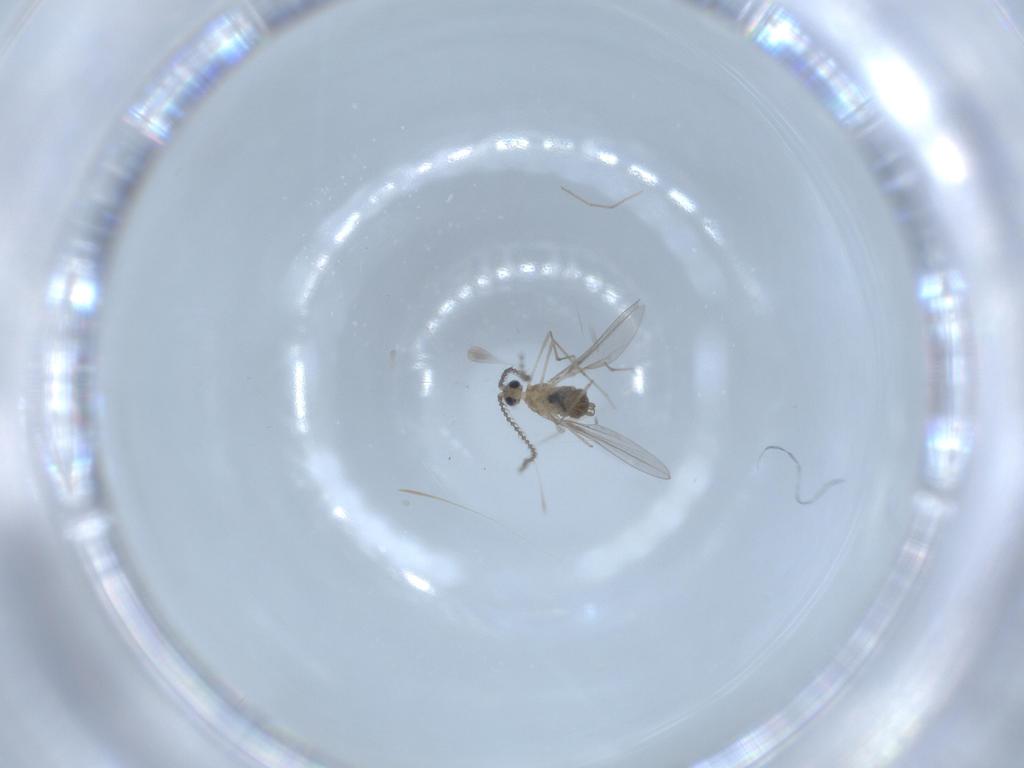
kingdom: Animalia
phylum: Arthropoda
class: Insecta
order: Diptera
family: Cecidomyiidae
